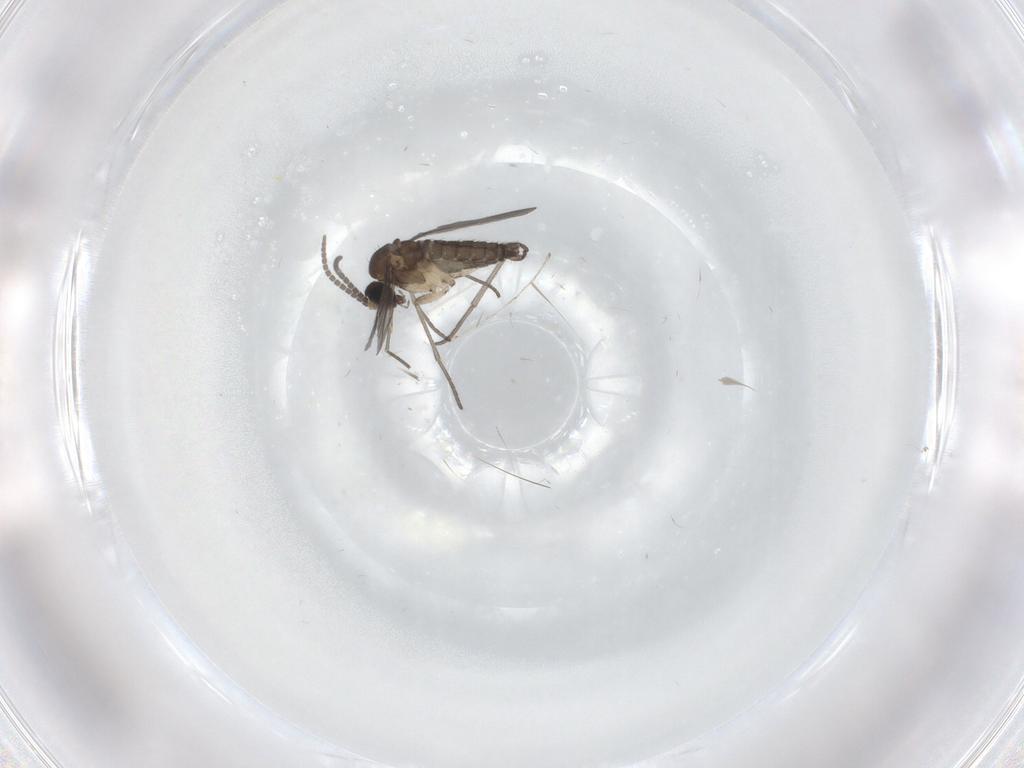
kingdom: Animalia
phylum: Arthropoda
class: Insecta
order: Diptera
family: Sciaridae
